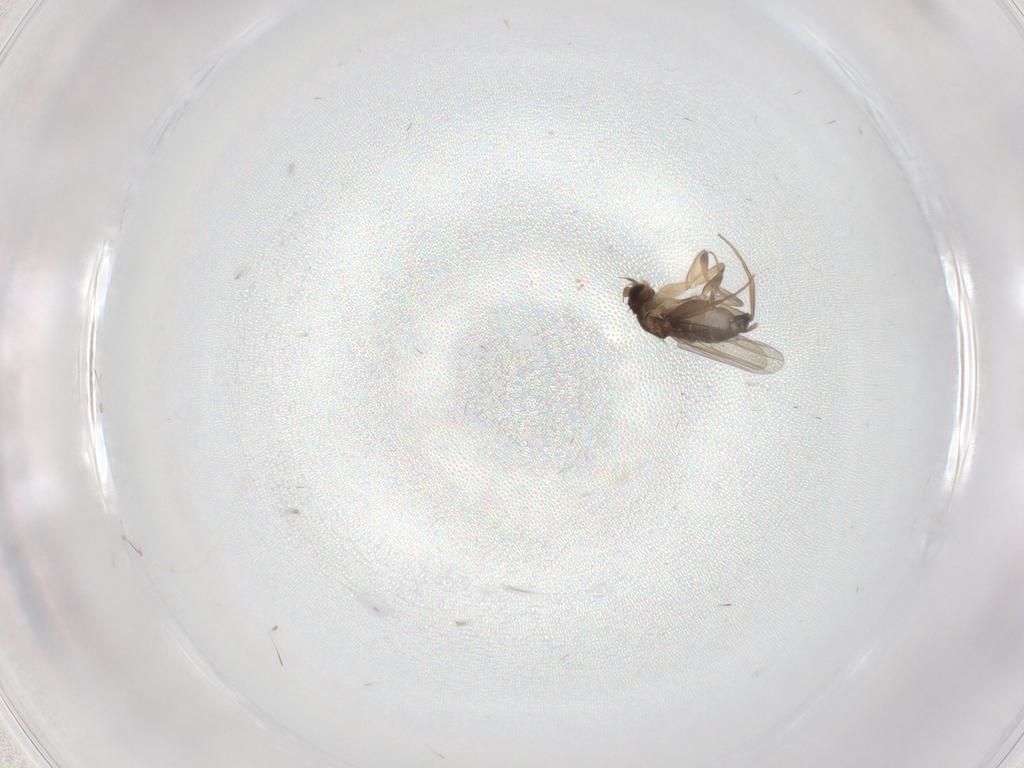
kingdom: Animalia
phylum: Arthropoda
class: Insecta
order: Diptera
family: Phoridae
